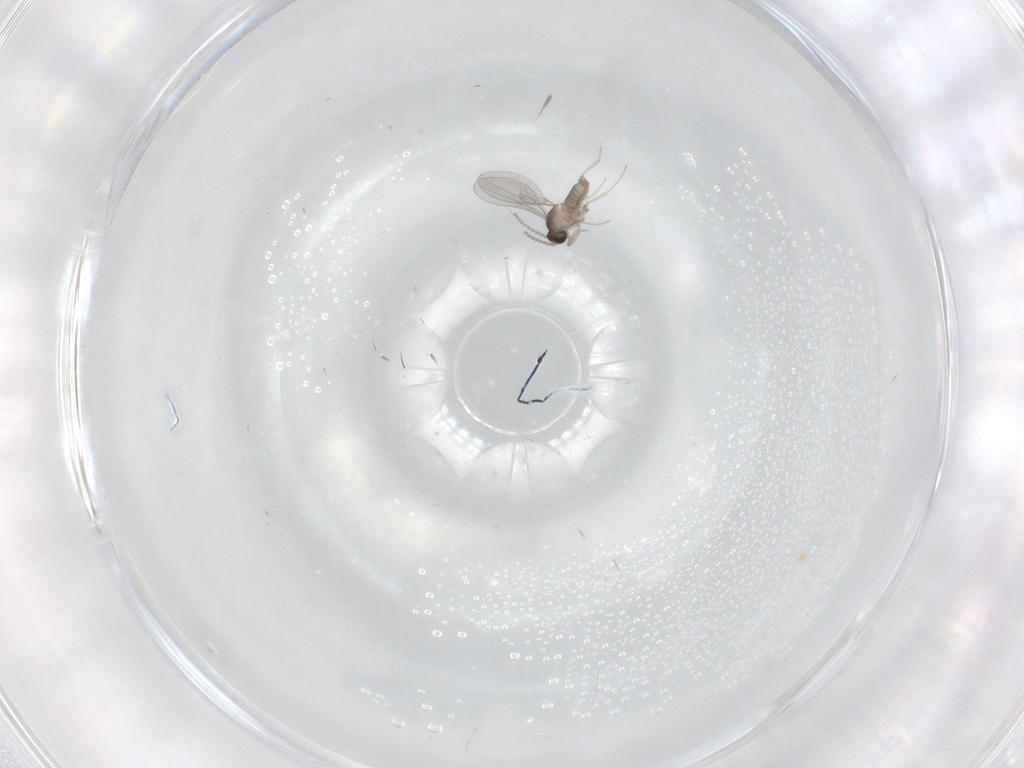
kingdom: Animalia
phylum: Arthropoda
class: Insecta
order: Diptera
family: Cecidomyiidae
